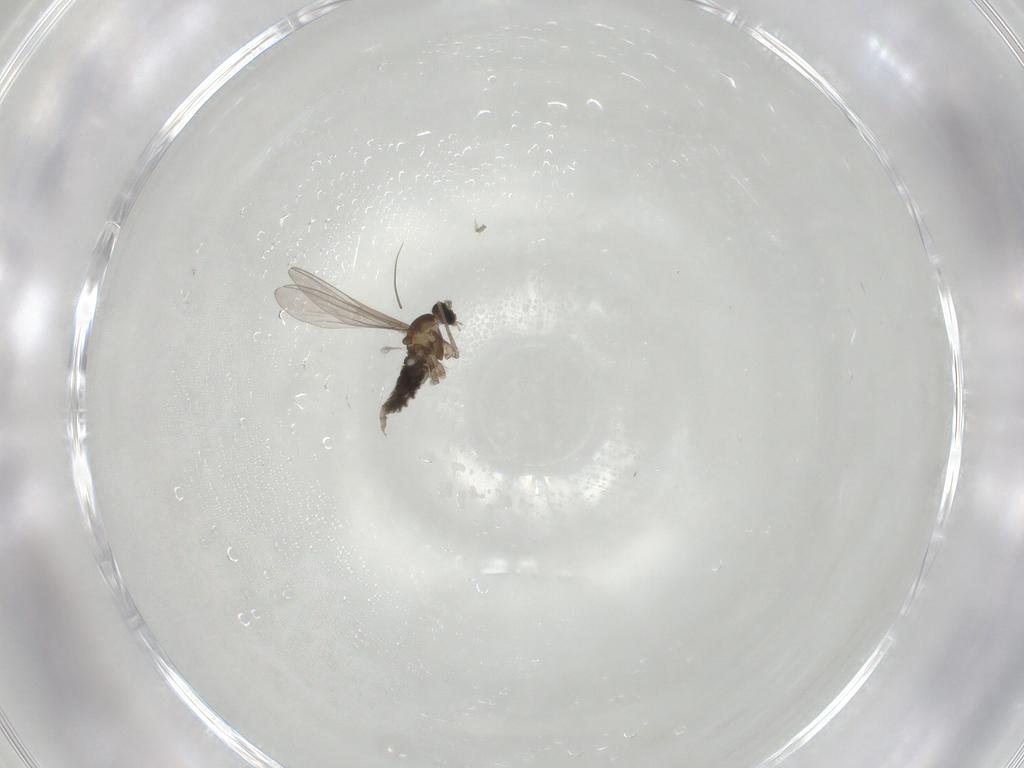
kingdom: Animalia
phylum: Arthropoda
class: Insecta
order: Diptera
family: Cecidomyiidae
